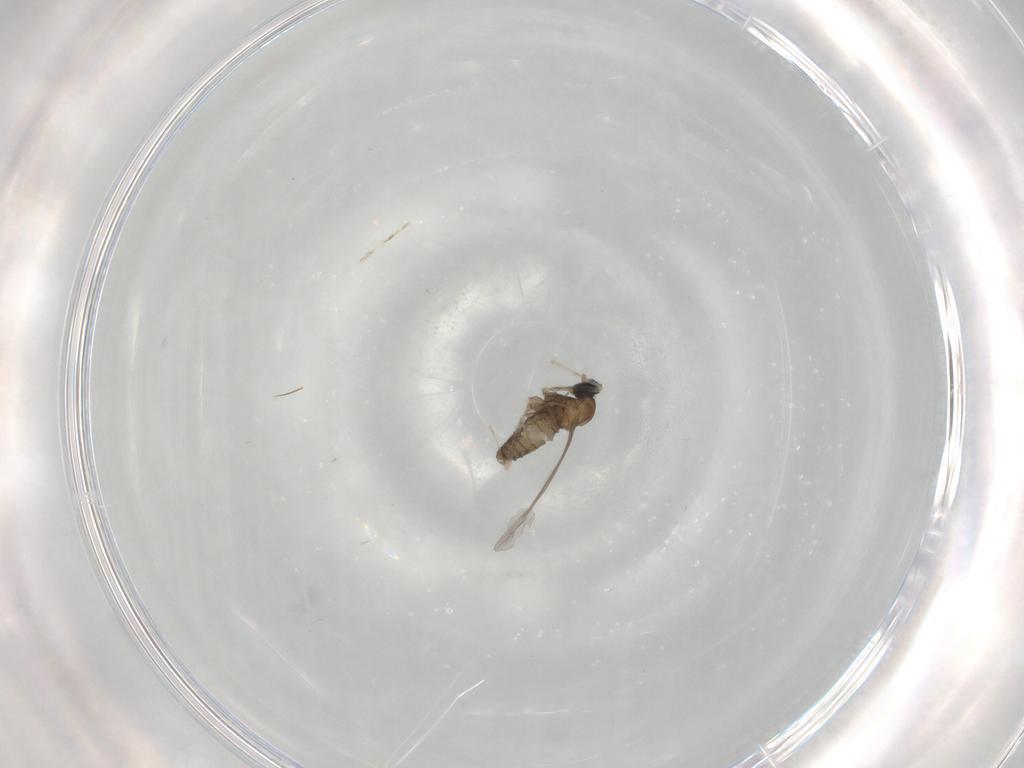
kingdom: Animalia
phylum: Arthropoda
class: Insecta
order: Diptera
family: Cecidomyiidae
